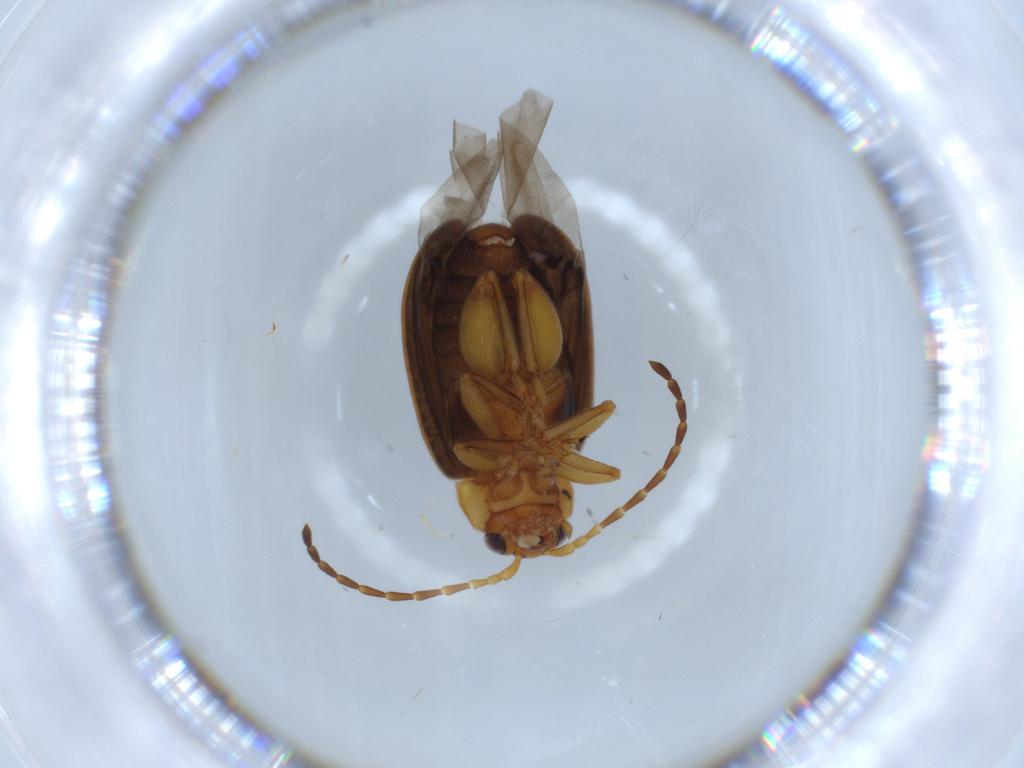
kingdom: Animalia
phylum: Arthropoda
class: Insecta
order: Coleoptera
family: Chrysomelidae
